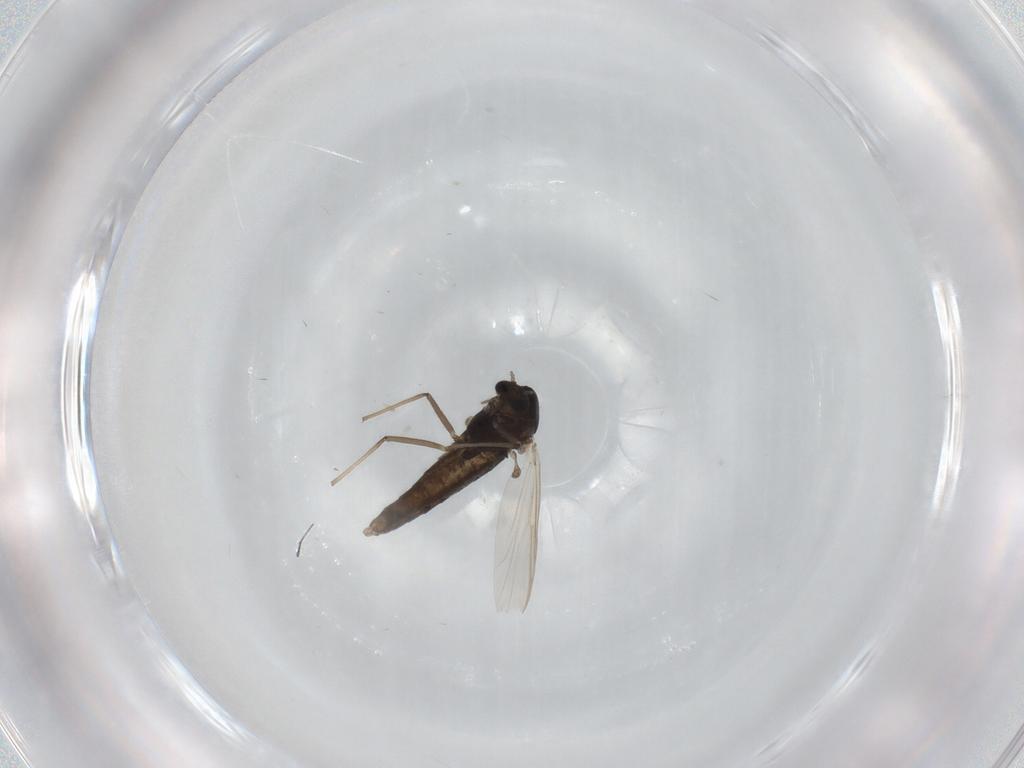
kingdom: Animalia
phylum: Arthropoda
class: Insecta
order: Diptera
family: Chironomidae
